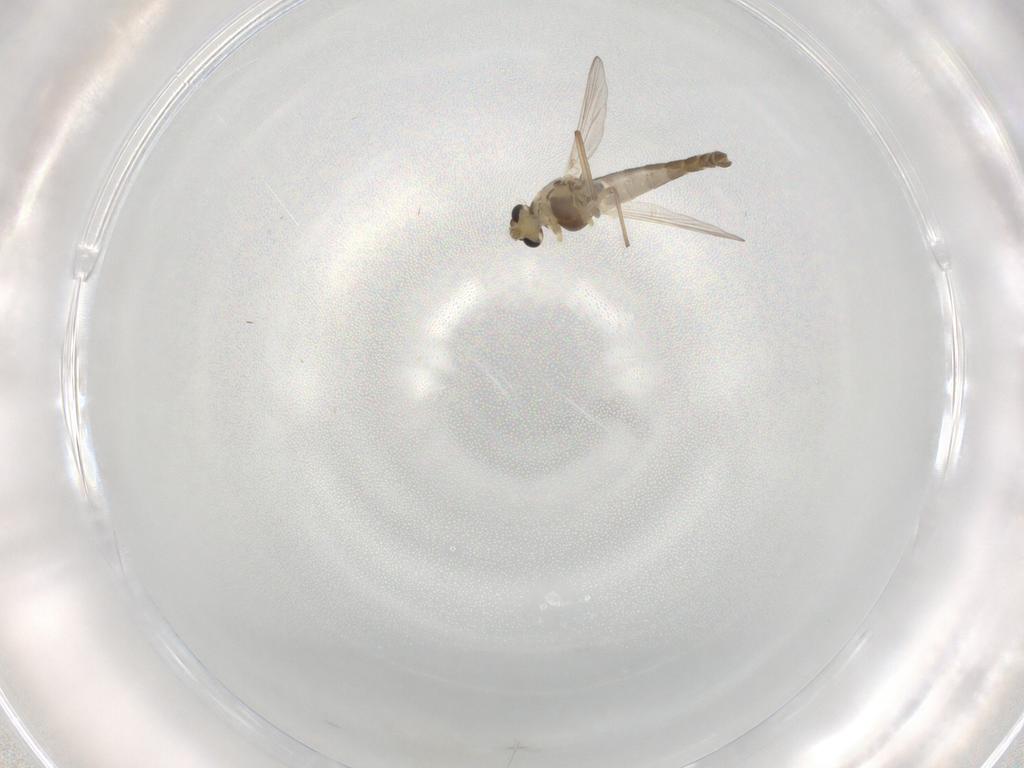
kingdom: Animalia
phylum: Arthropoda
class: Insecta
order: Diptera
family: Chironomidae
